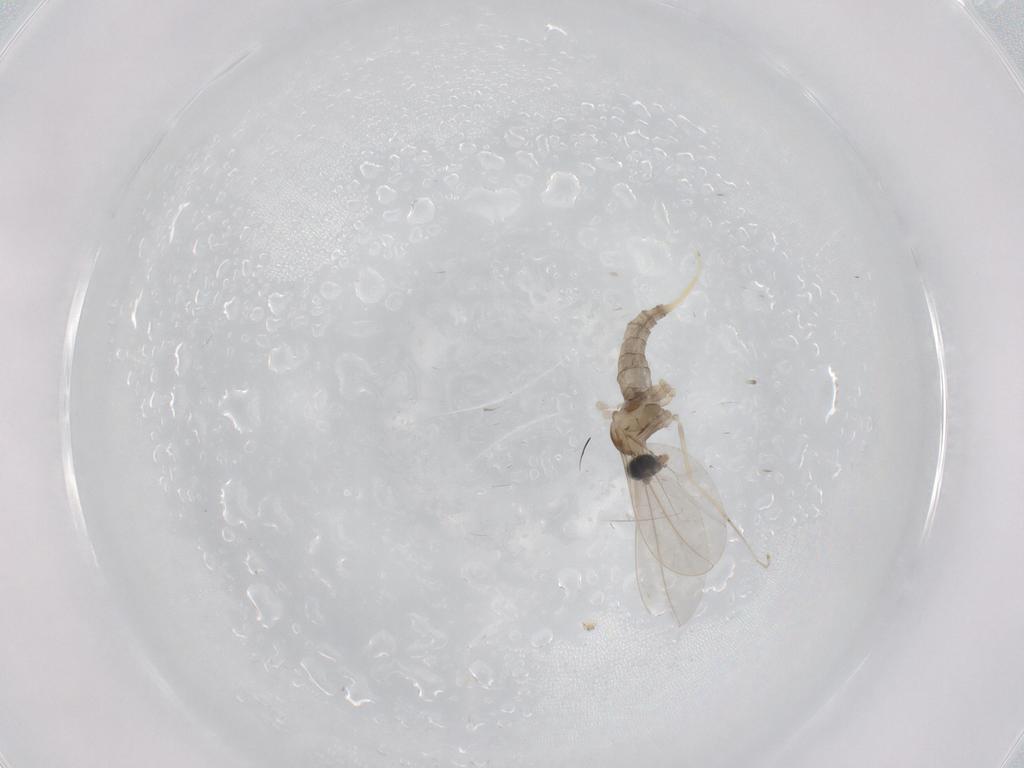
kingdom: Animalia
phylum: Arthropoda
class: Insecta
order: Diptera
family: Cecidomyiidae
